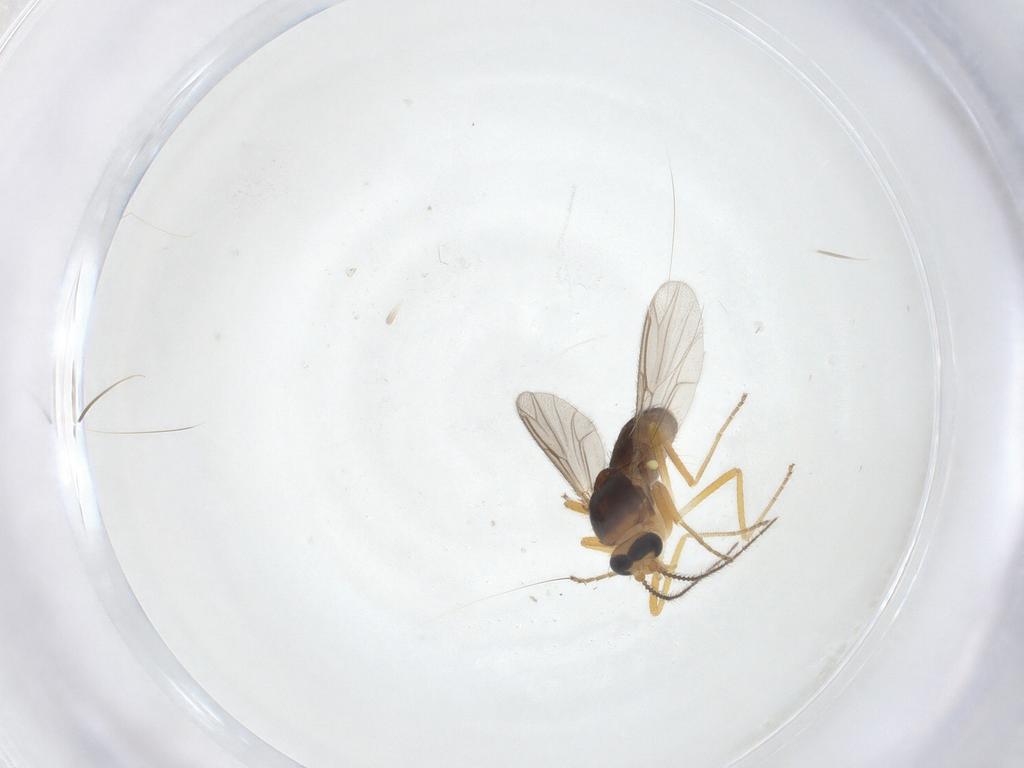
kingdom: Animalia
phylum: Arthropoda
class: Insecta
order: Diptera
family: Ceratopogonidae
